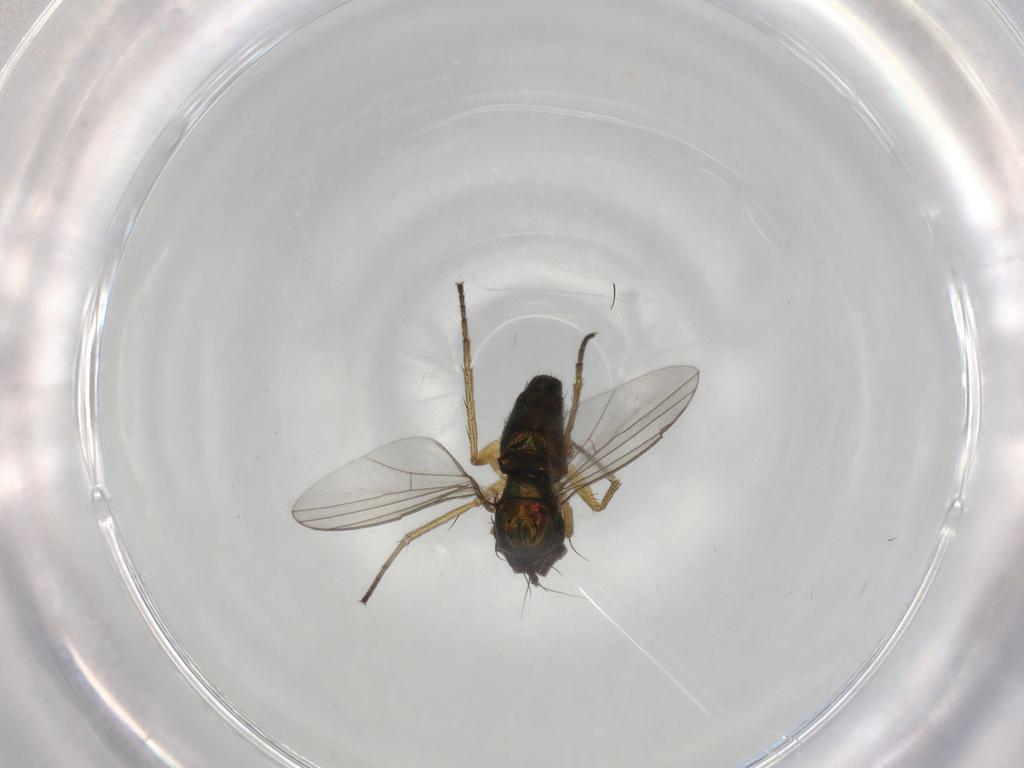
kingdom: Animalia
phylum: Arthropoda
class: Insecta
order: Diptera
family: Dolichopodidae
